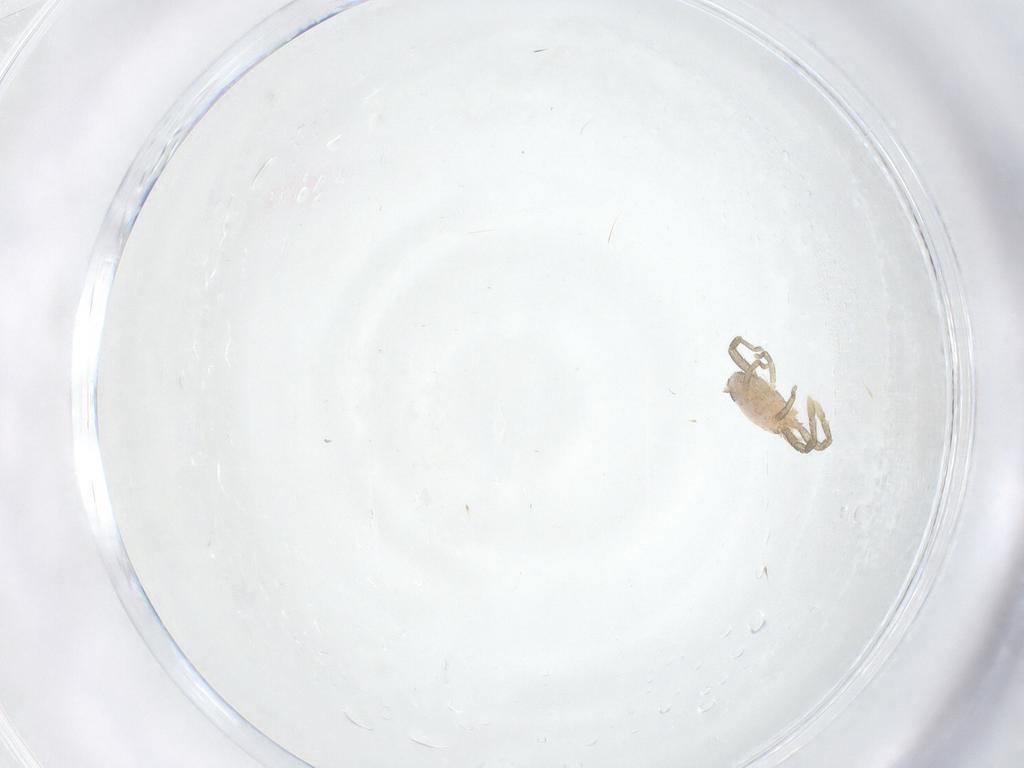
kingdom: Animalia
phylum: Arthropoda
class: Insecta
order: Diptera
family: Chironomidae
